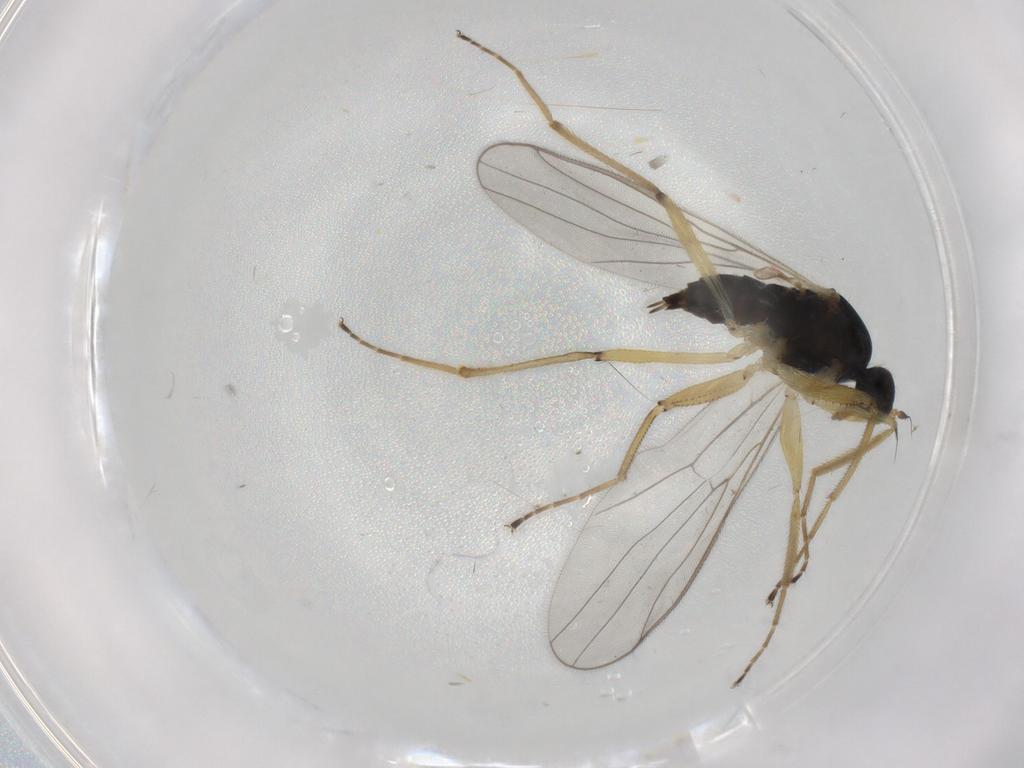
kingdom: Animalia
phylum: Arthropoda
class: Insecta
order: Diptera
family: Hybotidae
